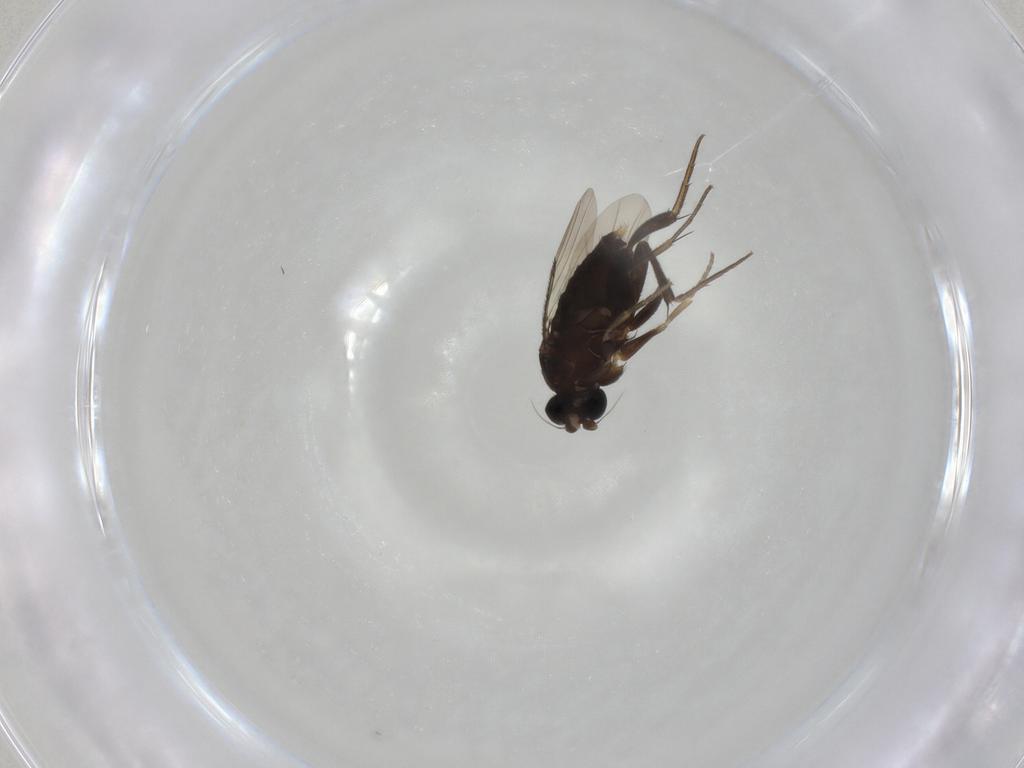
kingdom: Animalia
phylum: Arthropoda
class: Insecta
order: Diptera
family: Phoridae
